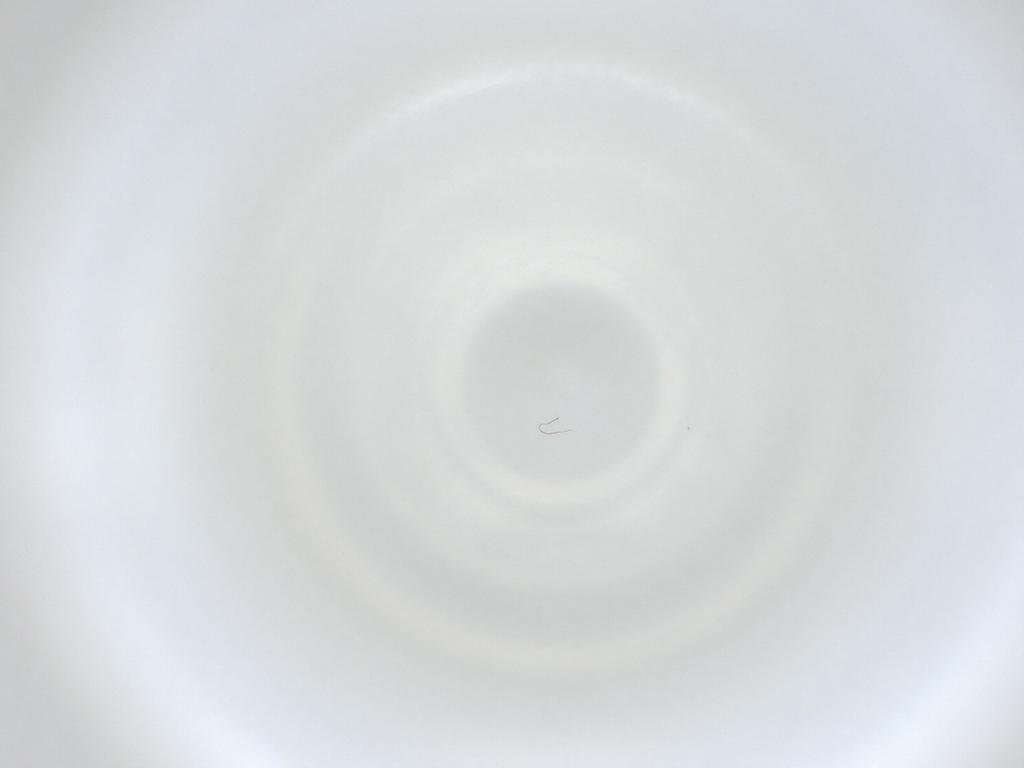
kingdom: Animalia
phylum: Arthropoda
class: Insecta
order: Diptera
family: Cecidomyiidae
